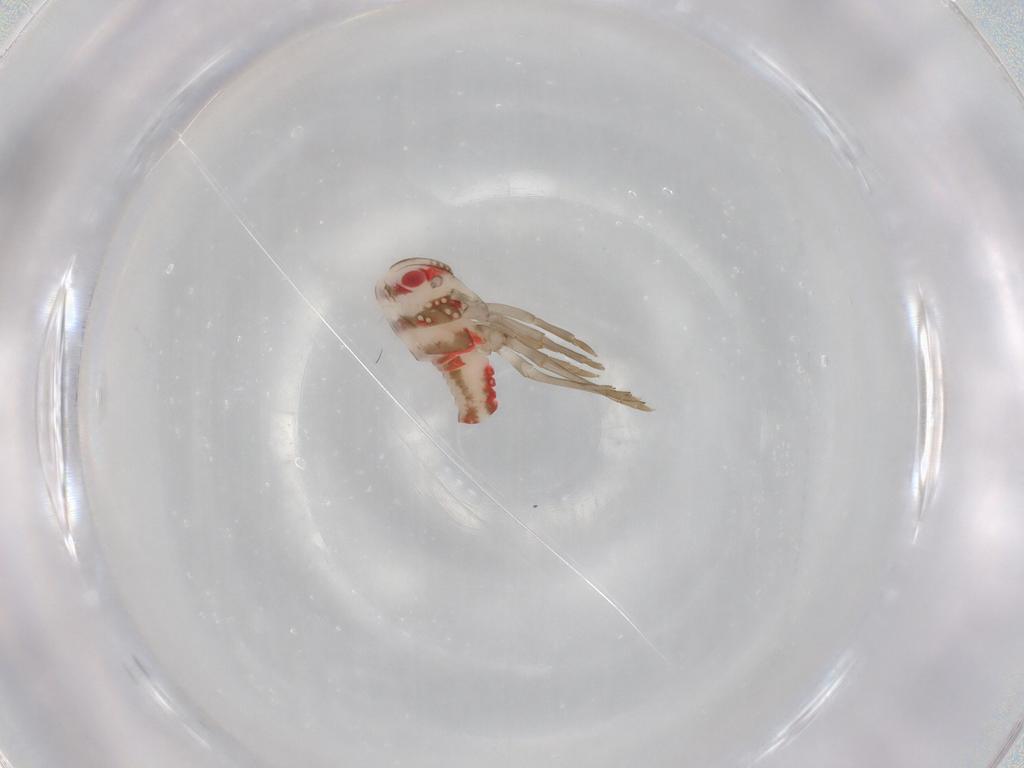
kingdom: Animalia
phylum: Arthropoda
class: Insecta
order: Hemiptera
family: Nogodinidae
